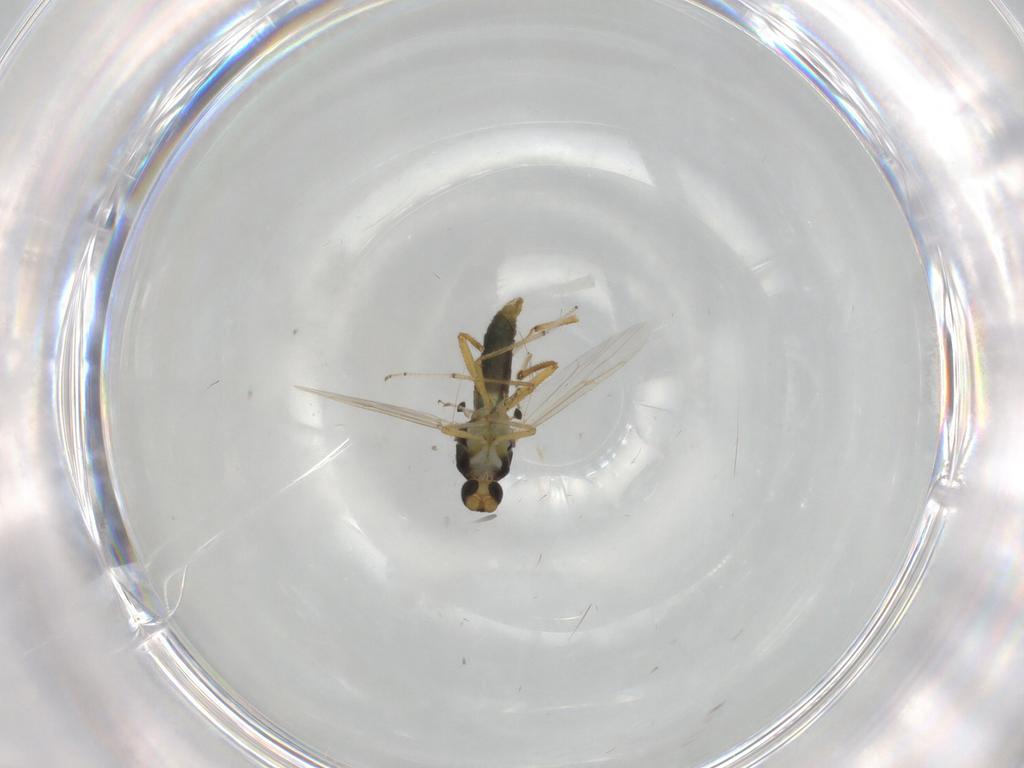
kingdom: Animalia
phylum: Arthropoda
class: Insecta
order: Diptera
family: Ceratopogonidae
